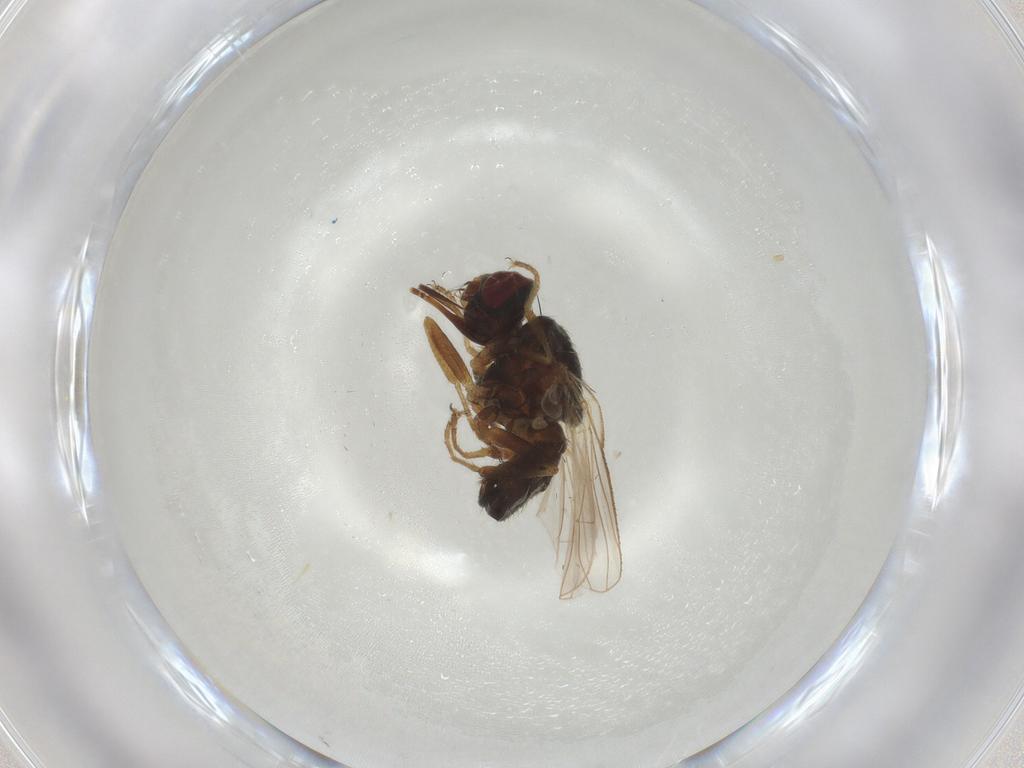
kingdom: Animalia
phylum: Arthropoda
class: Insecta
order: Diptera
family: Sarcophagidae
